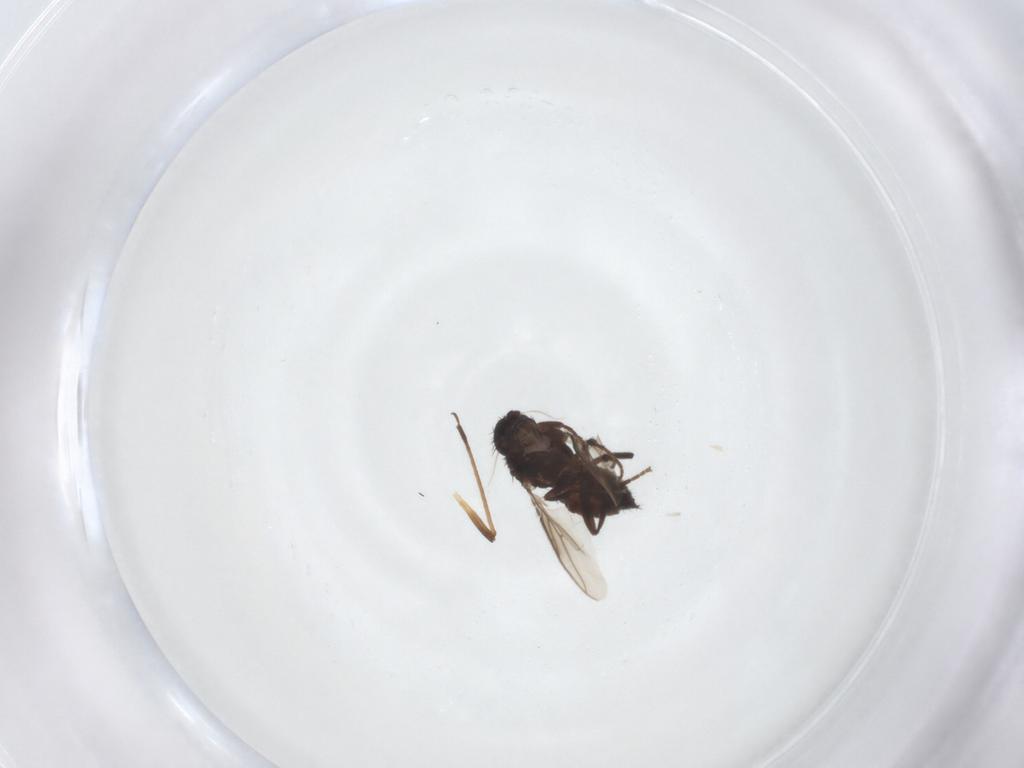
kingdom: Animalia
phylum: Arthropoda
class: Insecta
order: Diptera
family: Sphaeroceridae
